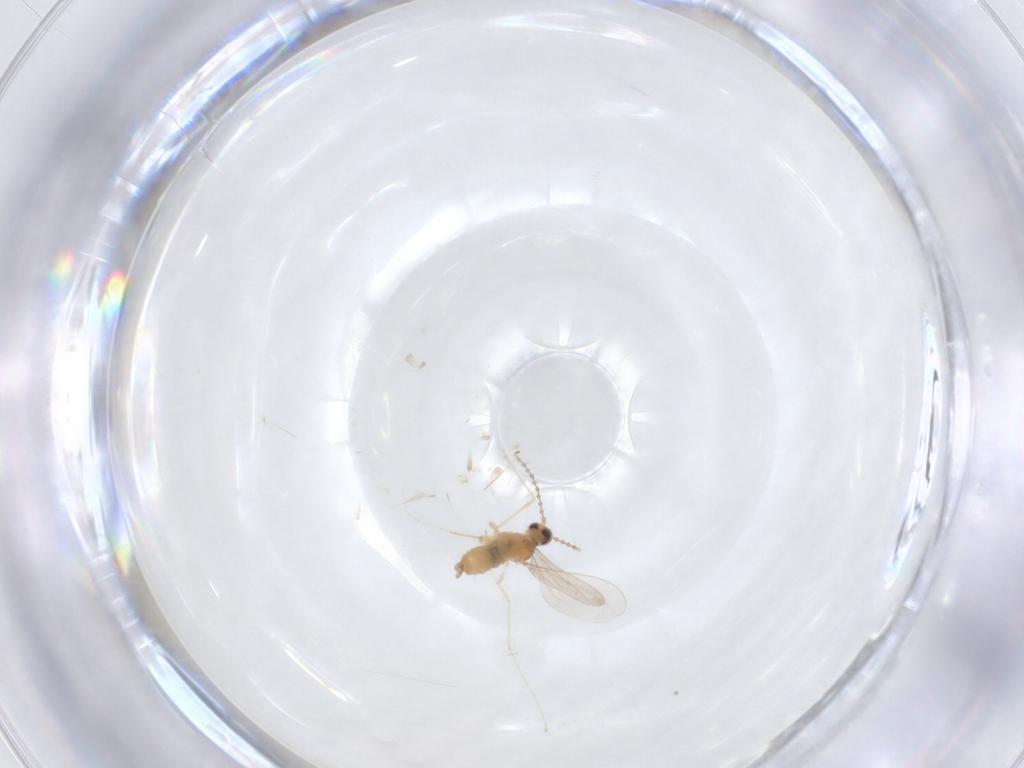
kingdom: Animalia
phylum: Arthropoda
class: Insecta
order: Diptera
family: Cecidomyiidae
